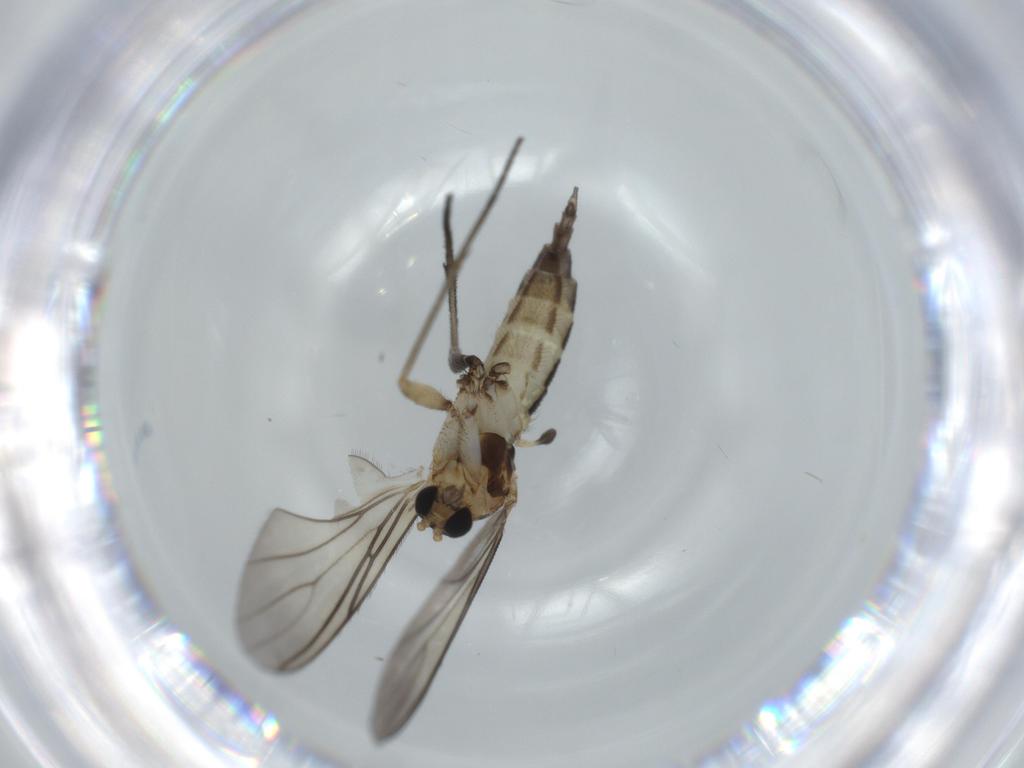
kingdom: Animalia
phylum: Arthropoda
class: Insecta
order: Diptera
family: Sciaridae
